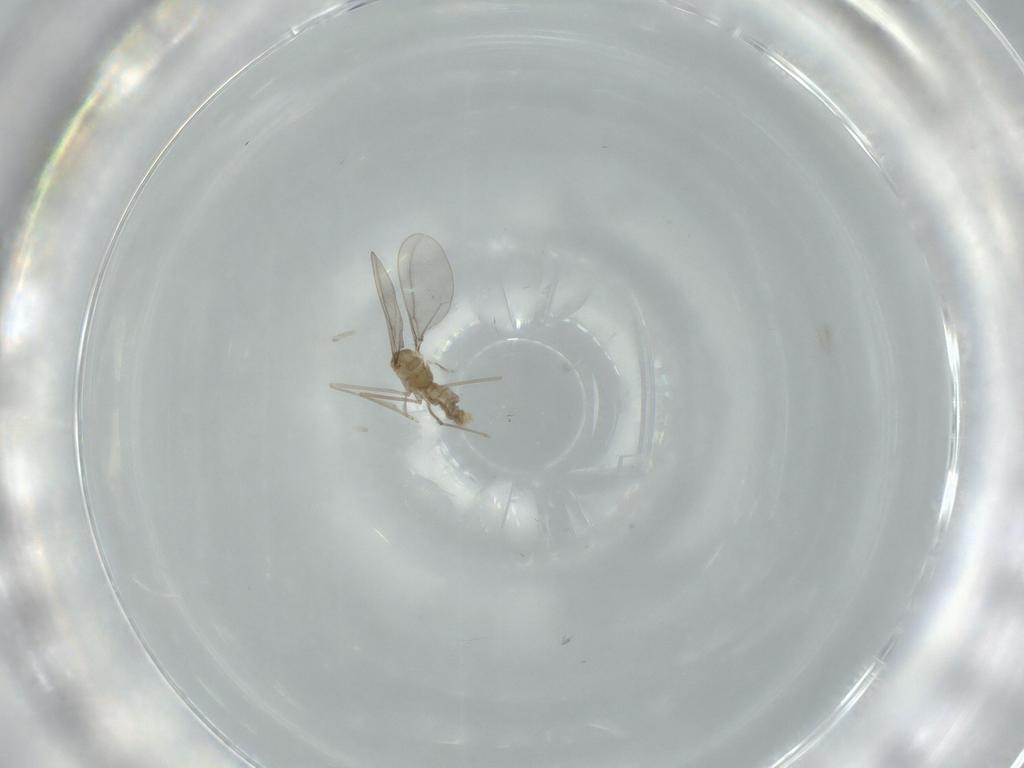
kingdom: Animalia
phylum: Arthropoda
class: Insecta
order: Diptera
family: Cecidomyiidae
